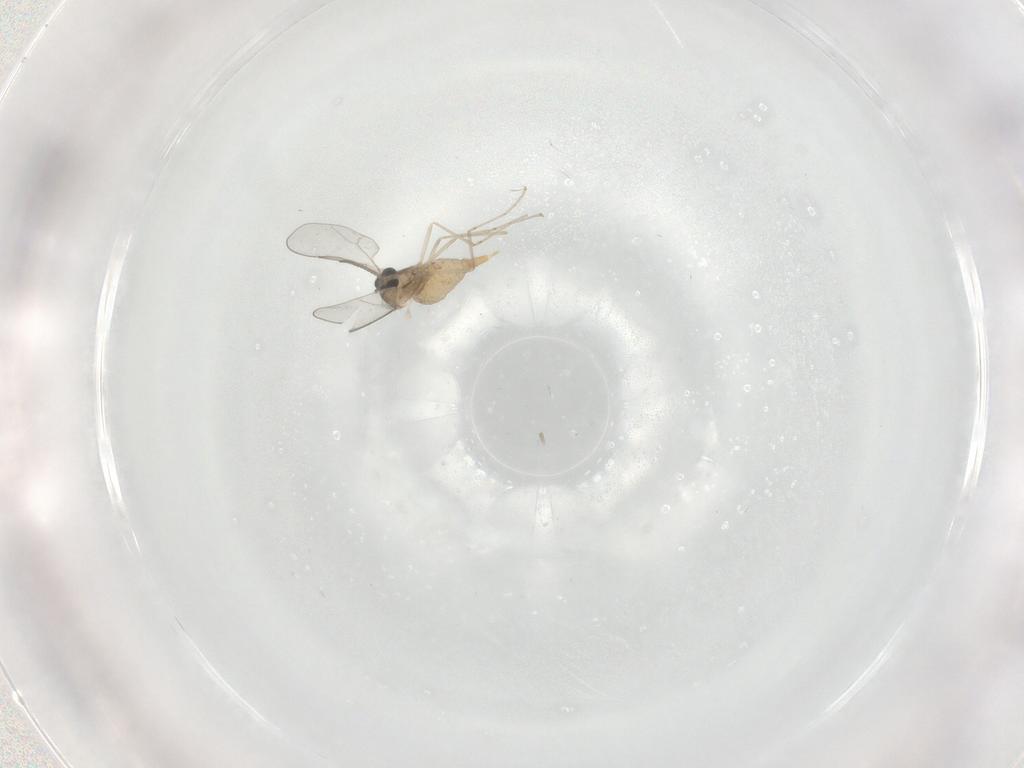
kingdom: Animalia
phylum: Arthropoda
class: Insecta
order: Diptera
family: Cecidomyiidae
